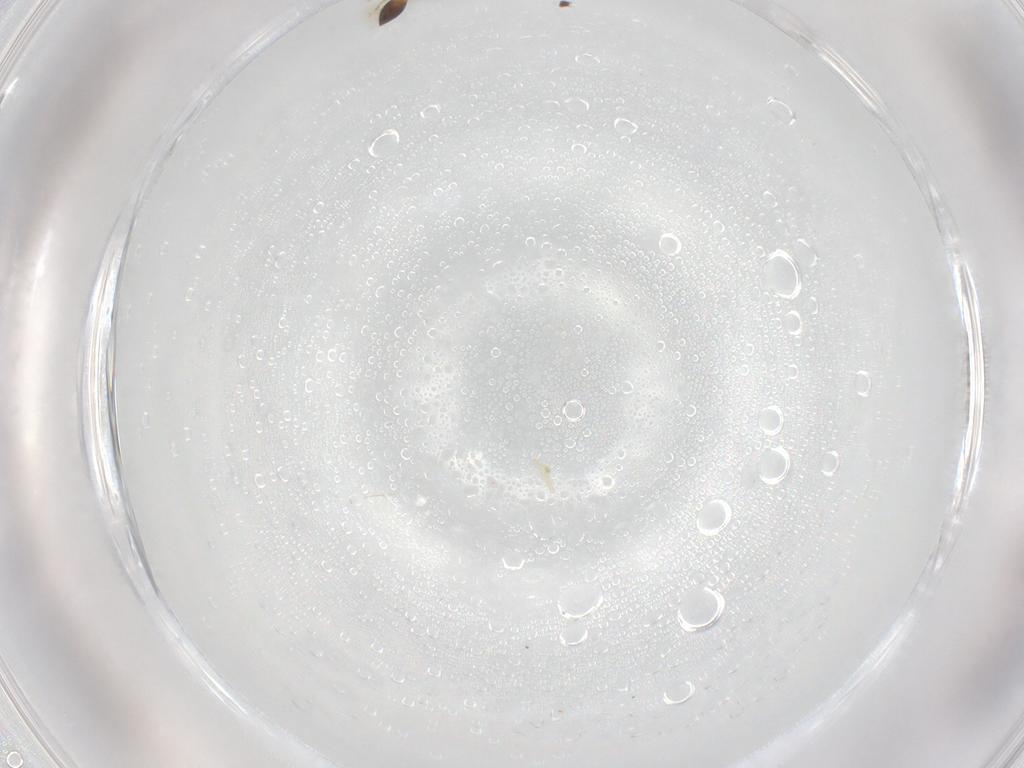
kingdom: Animalia
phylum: Arthropoda
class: Insecta
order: Hymenoptera
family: Platygastridae
